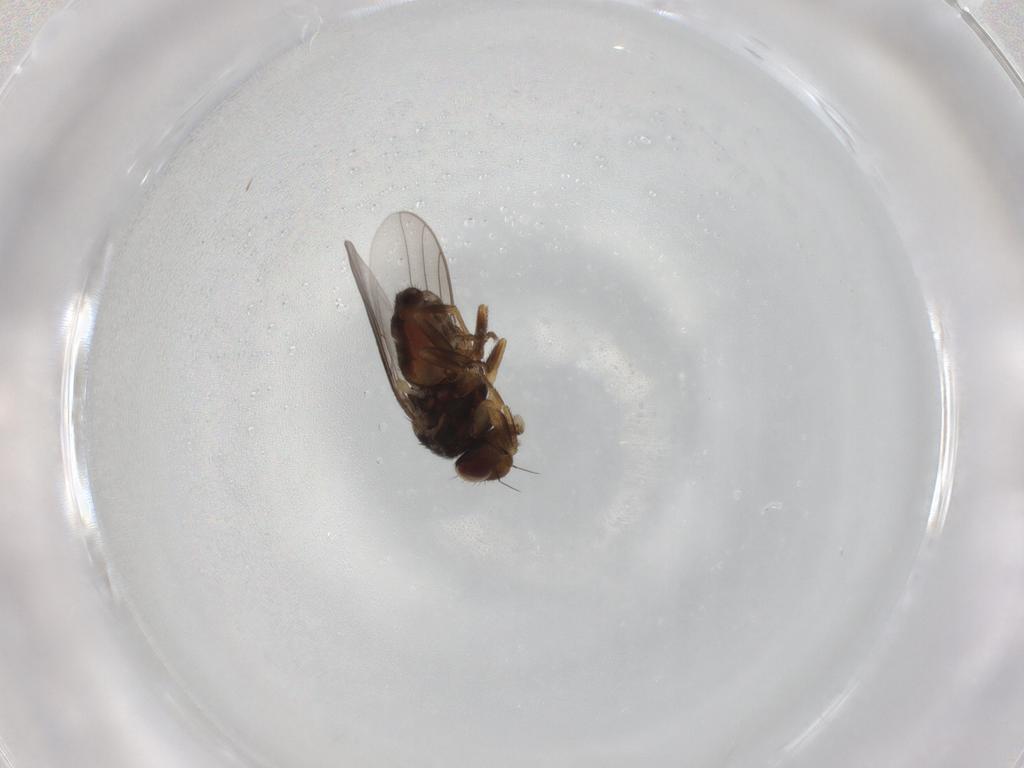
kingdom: Animalia
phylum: Arthropoda
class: Insecta
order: Diptera
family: Chloropidae
